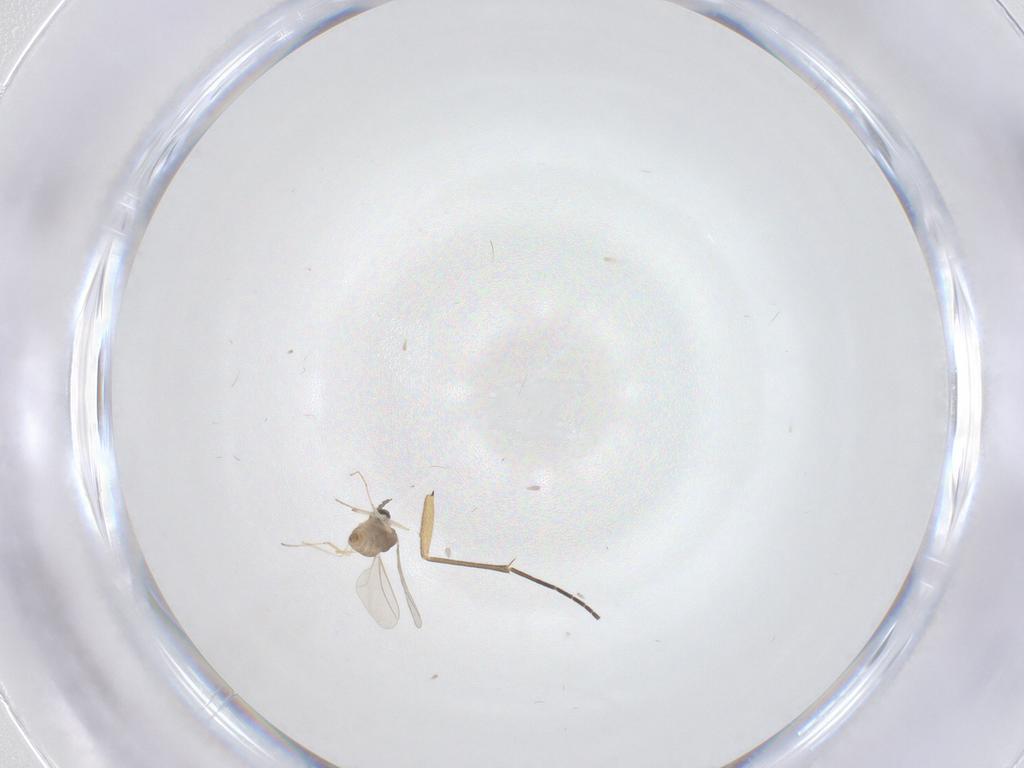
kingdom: Animalia
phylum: Arthropoda
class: Insecta
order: Diptera
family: Cecidomyiidae
